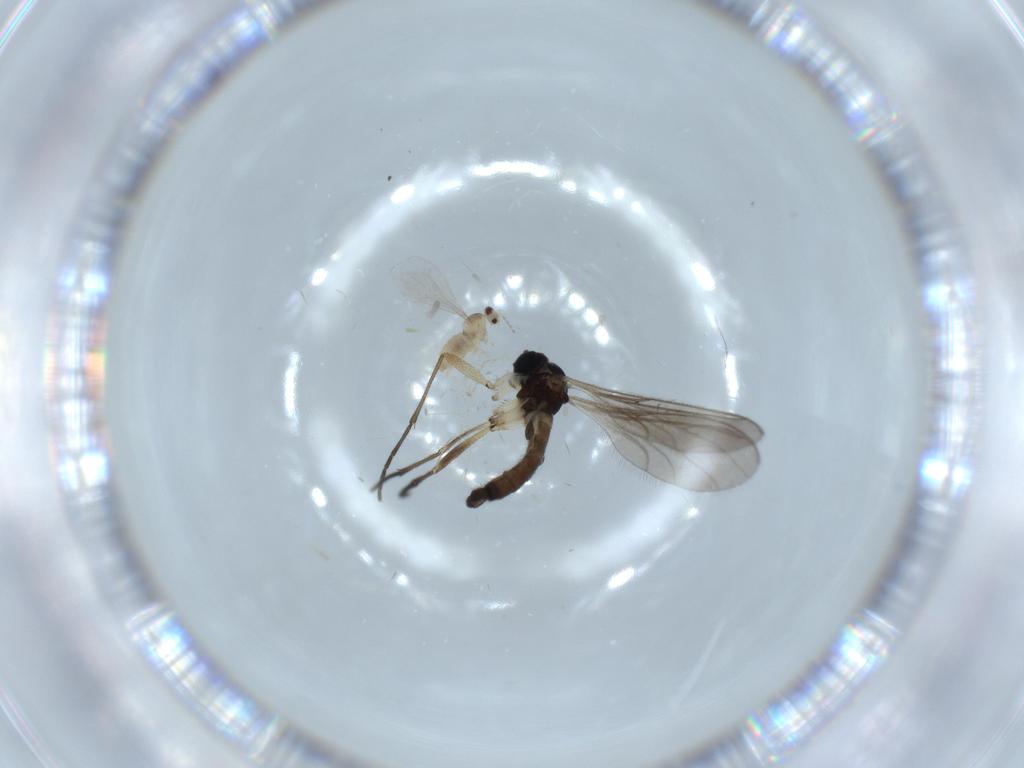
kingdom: Animalia
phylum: Arthropoda
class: Insecta
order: Diptera
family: Sciaridae
